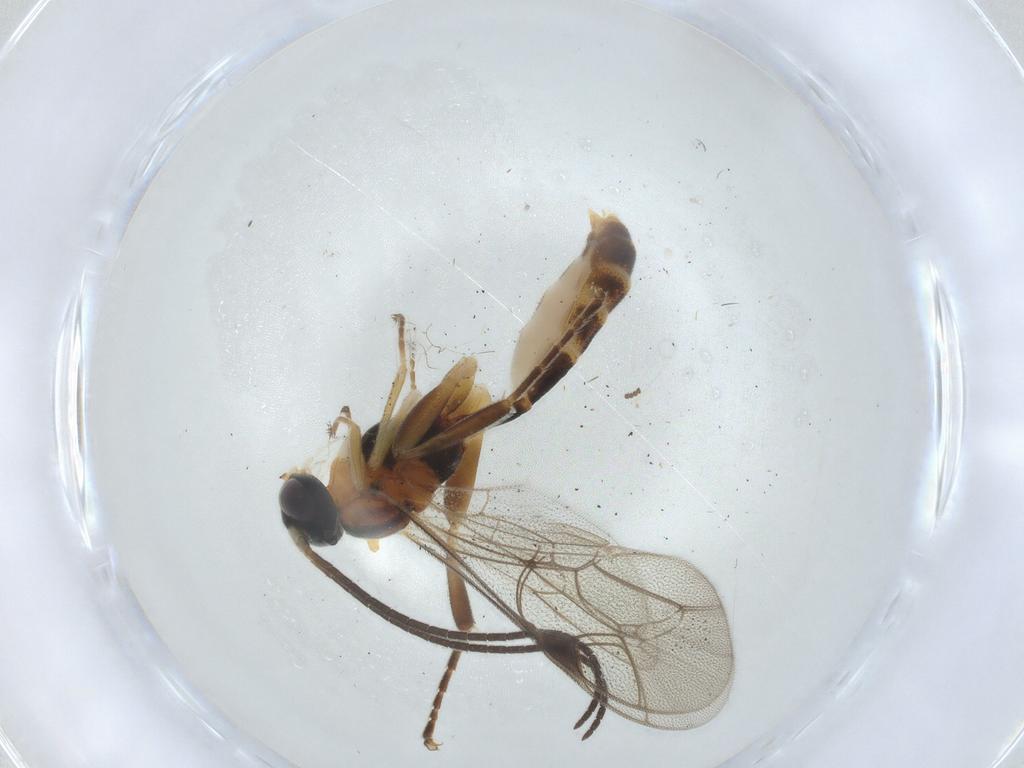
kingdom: Animalia
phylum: Arthropoda
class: Insecta
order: Hymenoptera
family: Ichneumonidae
